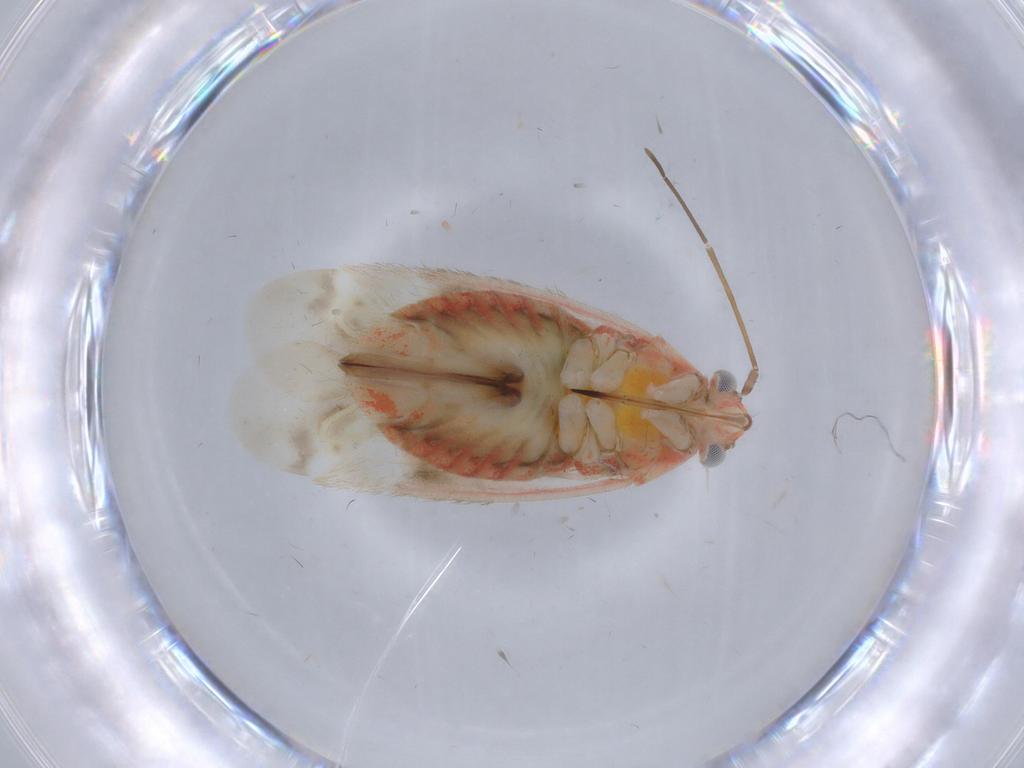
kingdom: Animalia
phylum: Arthropoda
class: Insecta
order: Hemiptera
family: Miridae
